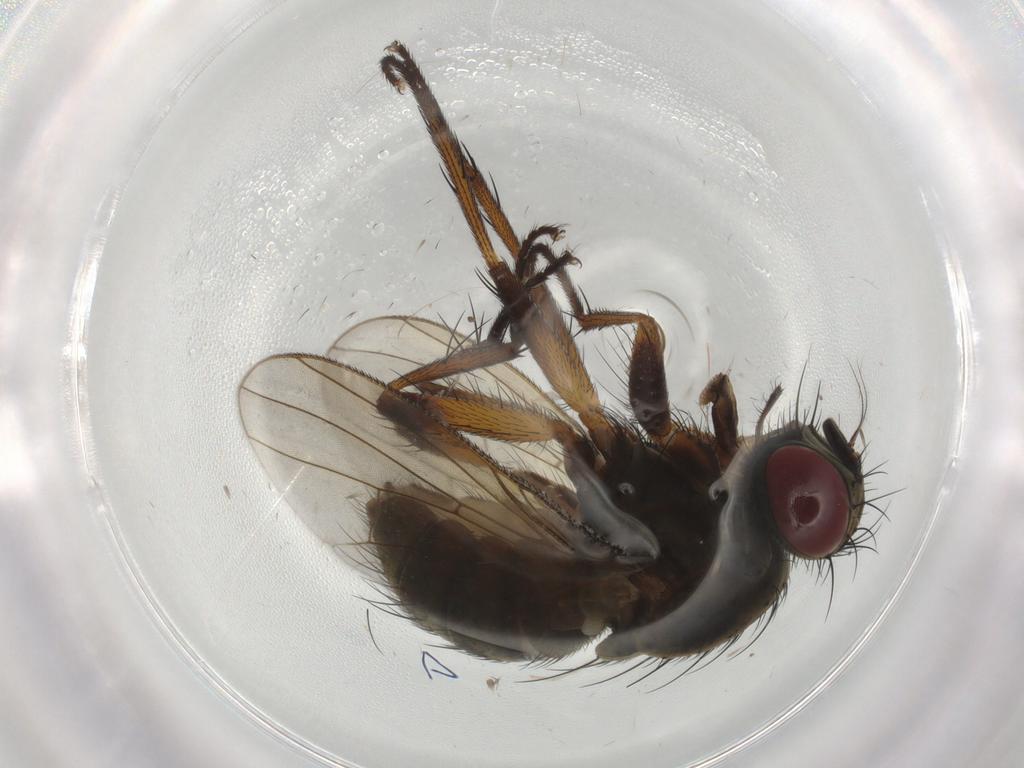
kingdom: Animalia
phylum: Arthropoda
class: Insecta
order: Diptera
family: Muscidae
